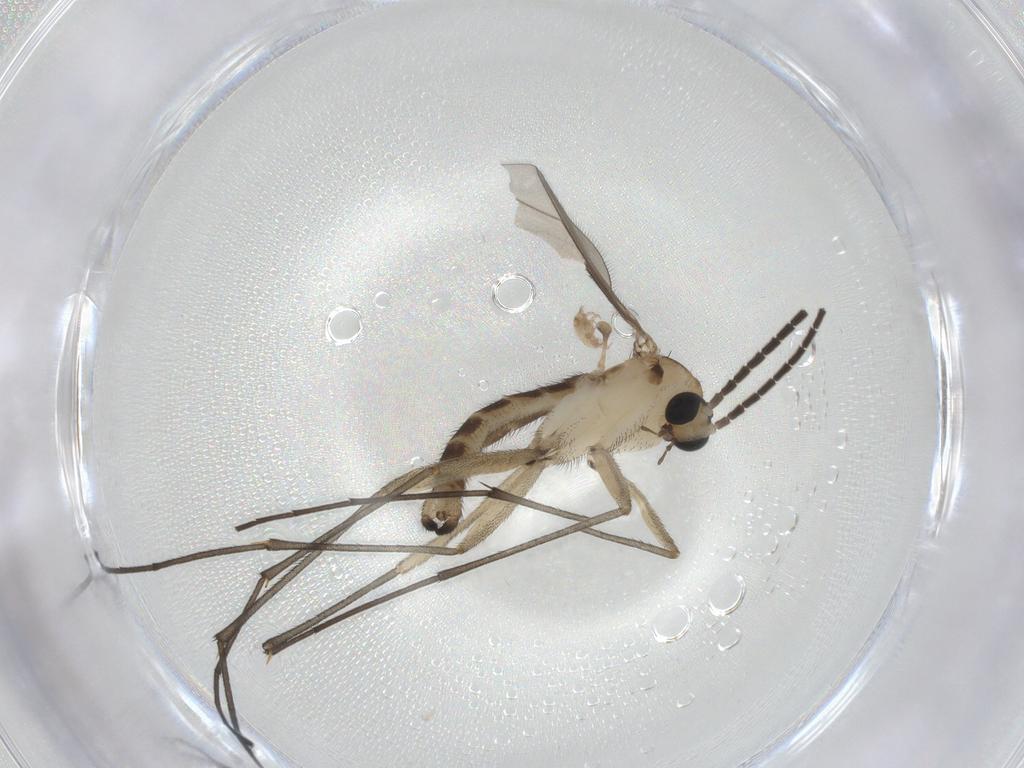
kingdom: Animalia
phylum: Arthropoda
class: Insecta
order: Diptera
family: Sciaridae
